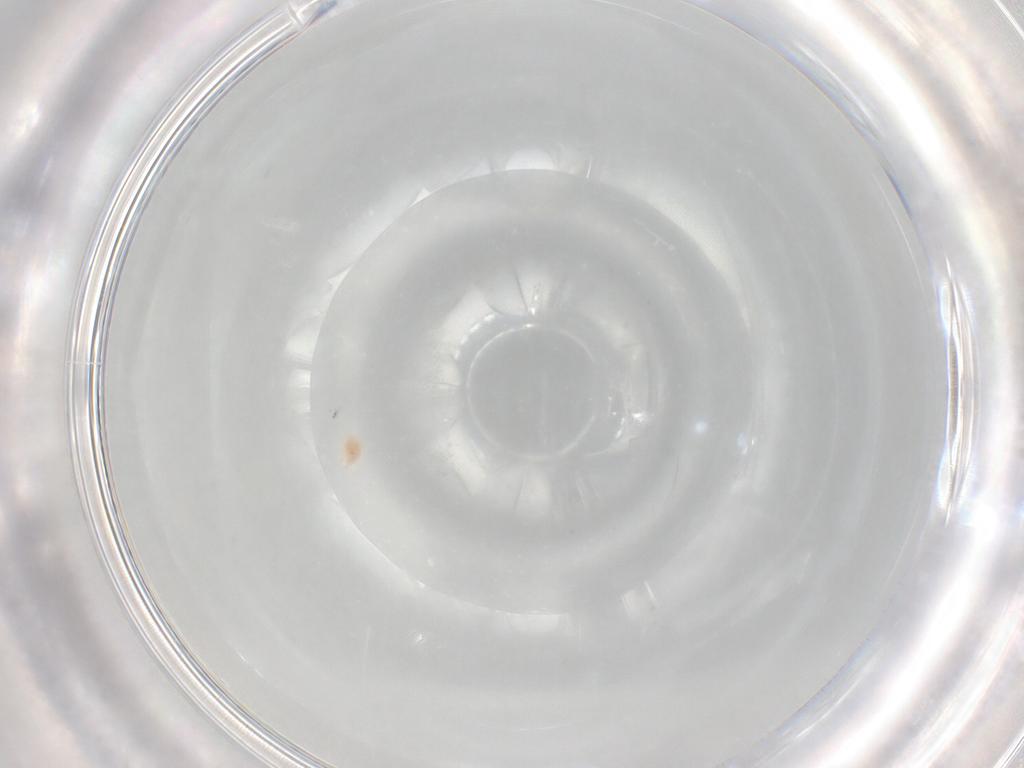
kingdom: Animalia
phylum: Arthropoda
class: Arachnida
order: Trombidiformes
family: Bdellidae
